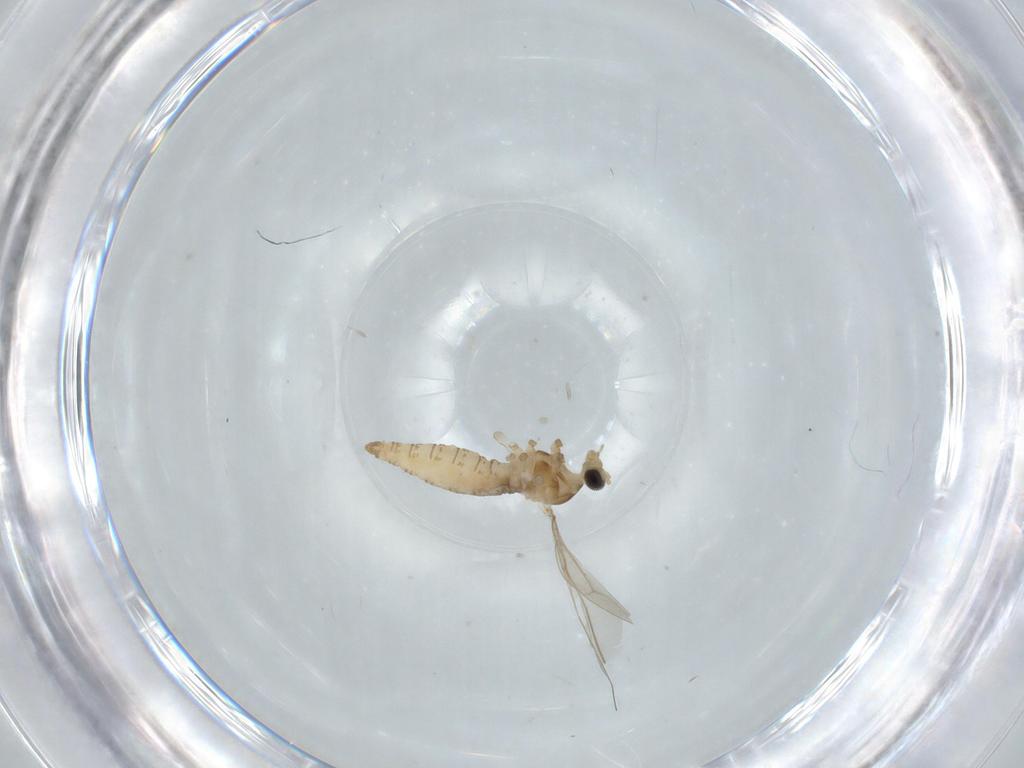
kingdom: Animalia
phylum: Arthropoda
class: Insecta
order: Diptera
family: Cecidomyiidae
